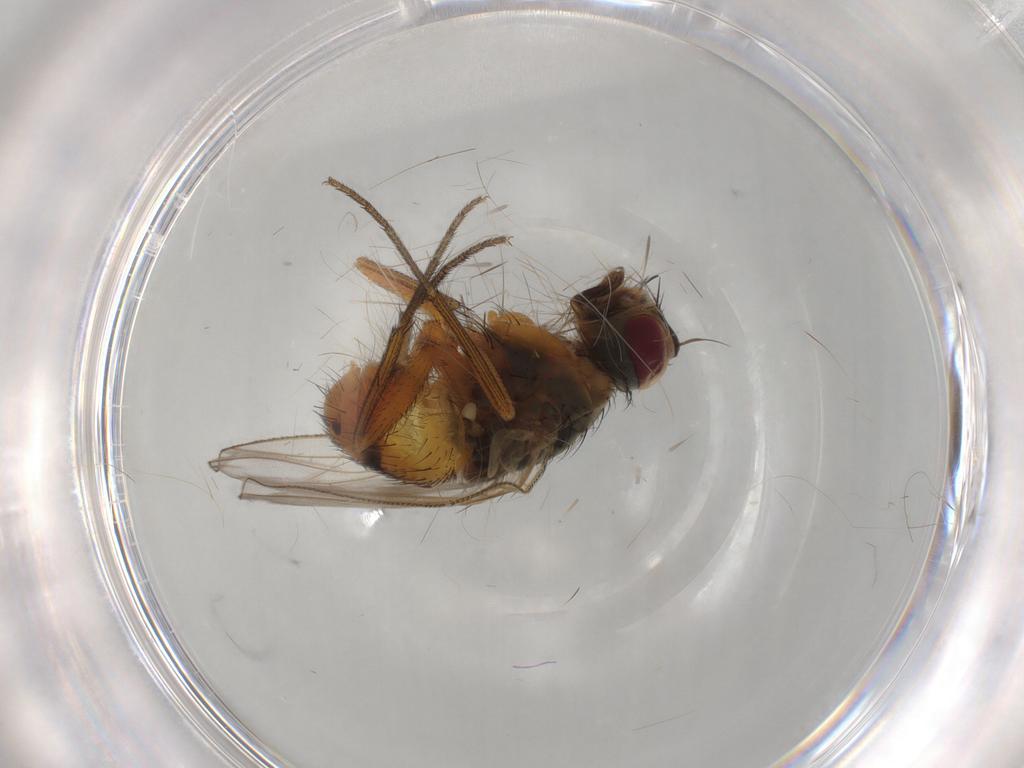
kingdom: Animalia
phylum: Arthropoda
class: Insecta
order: Diptera
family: Muscidae
